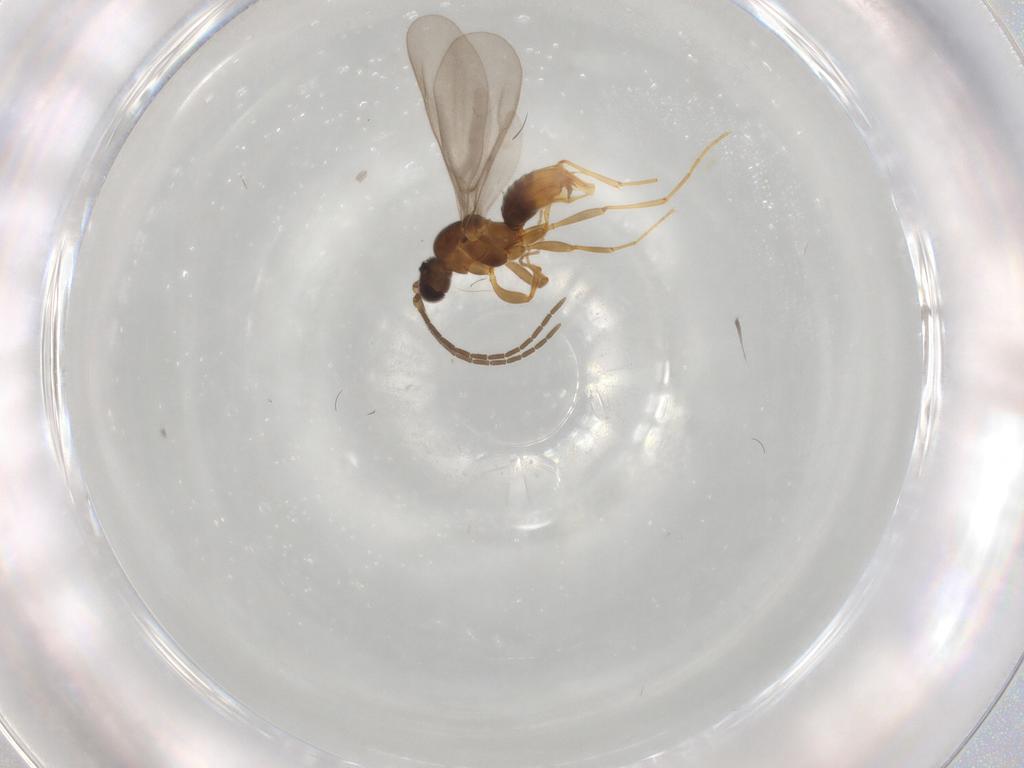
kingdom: Animalia
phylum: Arthropoda
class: Insecta
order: Hymenoptera
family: Formicidae
